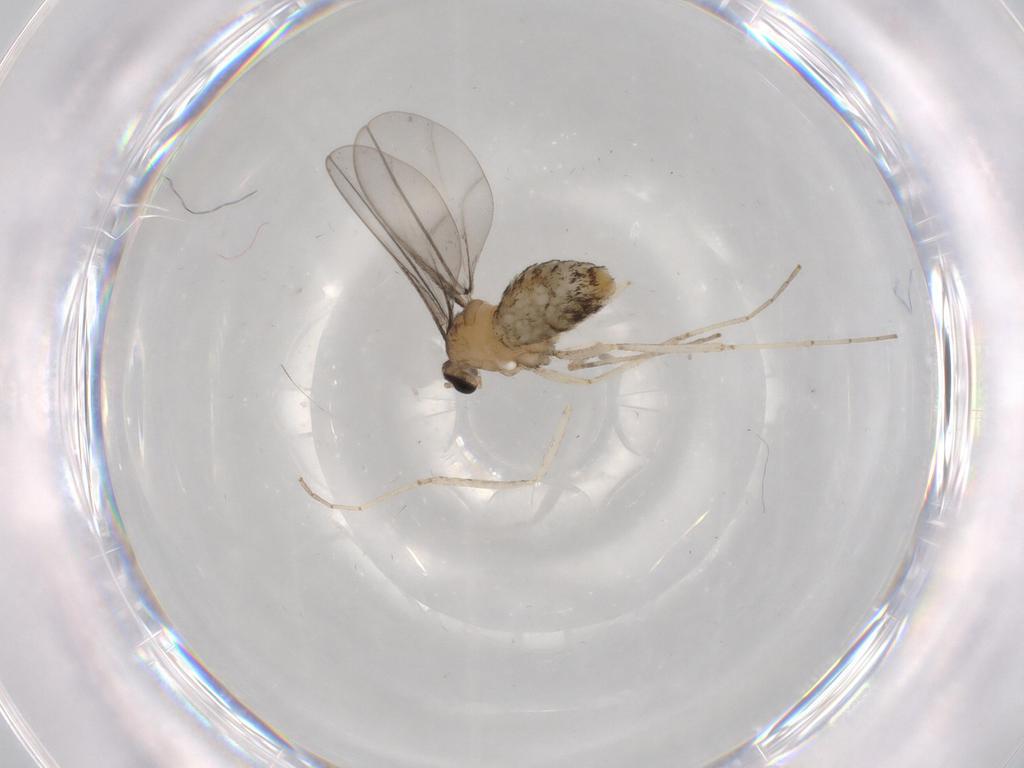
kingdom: Animalia
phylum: Arthropoda
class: Insecta
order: Diptera
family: Cecidomyiidae
